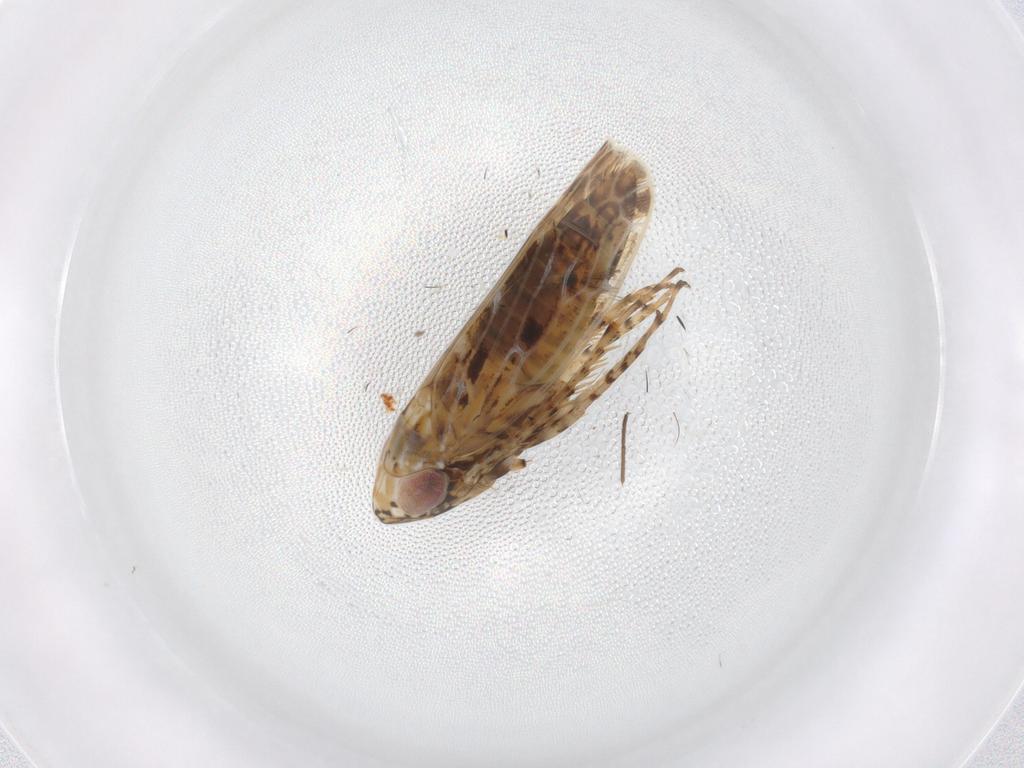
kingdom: Animalia
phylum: Arthropoda
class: Insecta
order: Hemiptera
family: Cicadellidae
